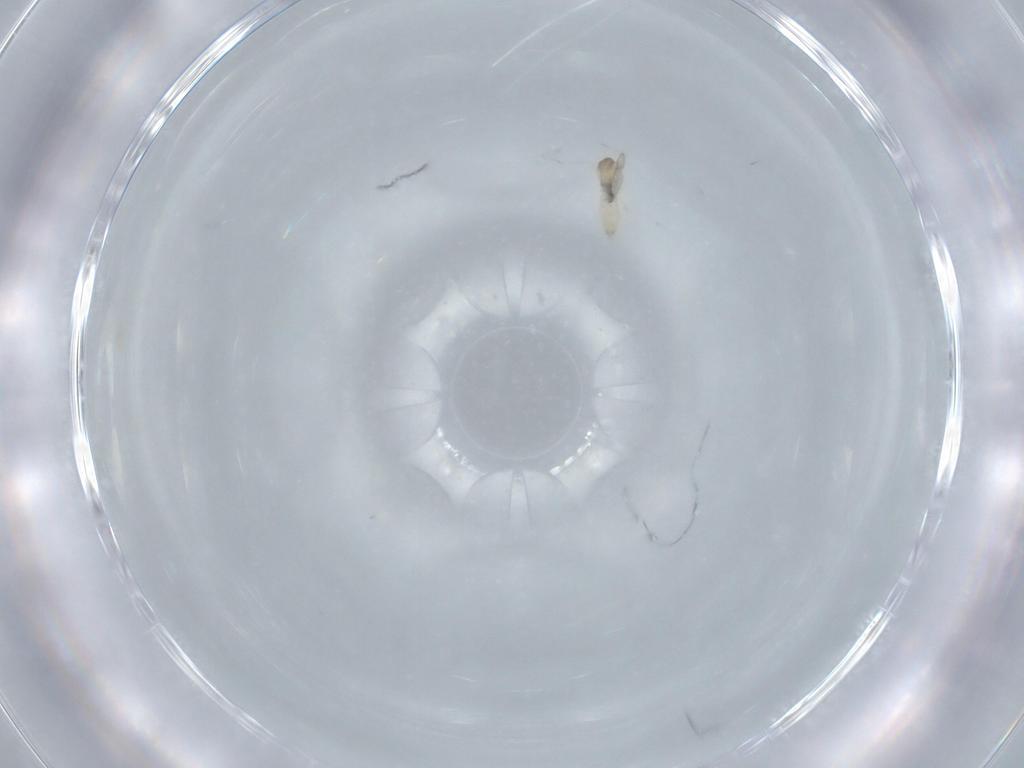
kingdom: Animalia
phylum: Arthropoda
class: Insecta
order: Diptera
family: Cecidomyiidae
